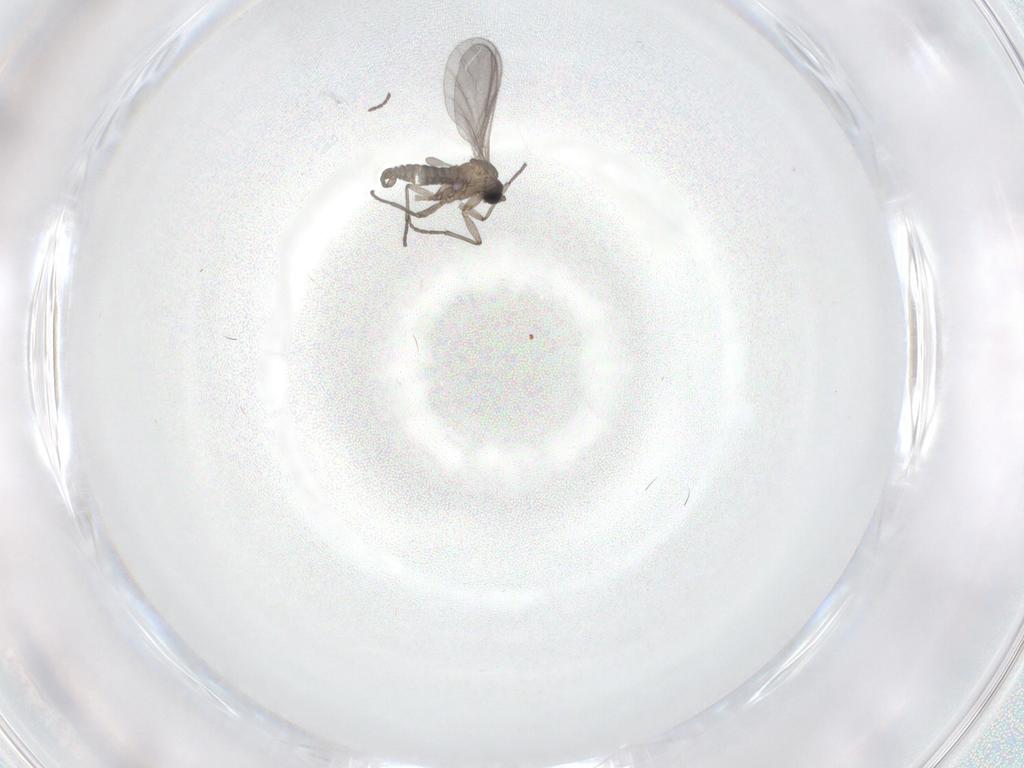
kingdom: Animalia
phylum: Arthropoda
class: Insecta
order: Diptera
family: Sciaridae
